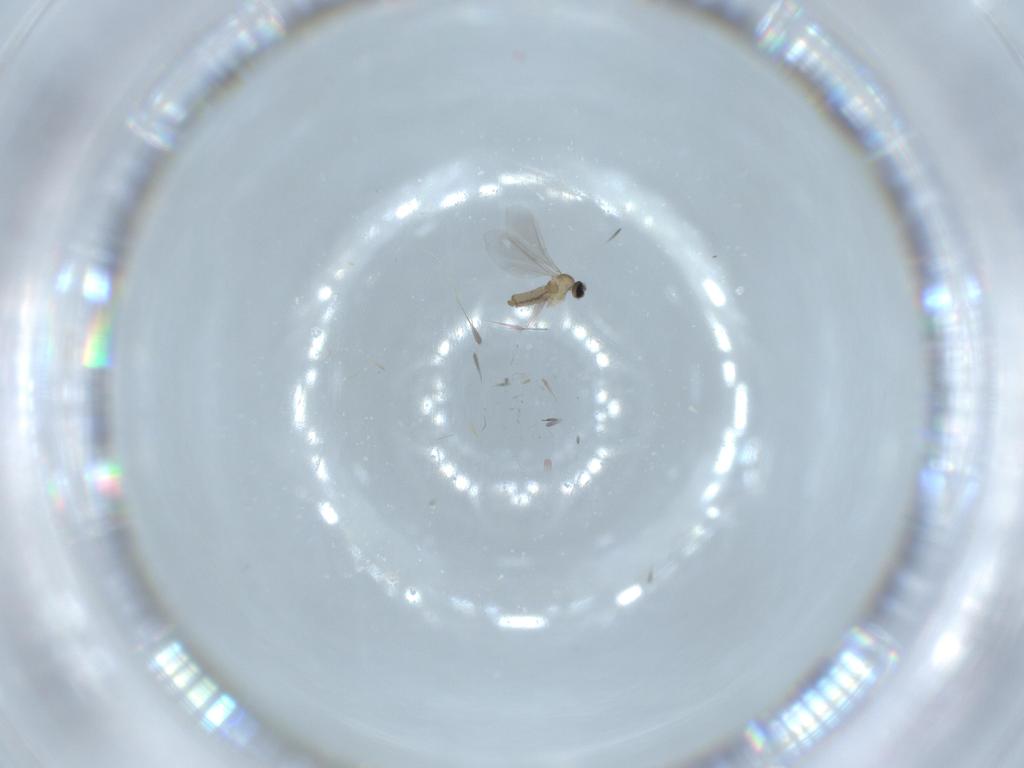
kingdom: Animalia
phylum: Arthropoda
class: Insecta
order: Diptera
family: Cecidomyiidae
